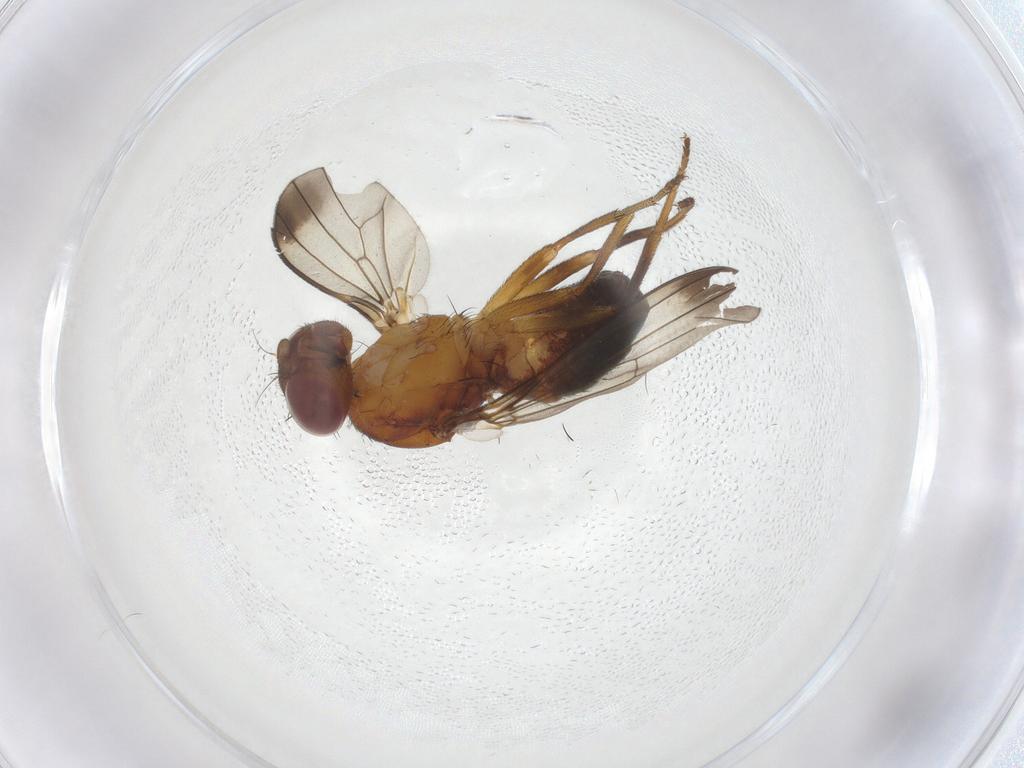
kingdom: Animalia
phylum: Arthropoda
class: Insecta
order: Diptera
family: Piophilidae
